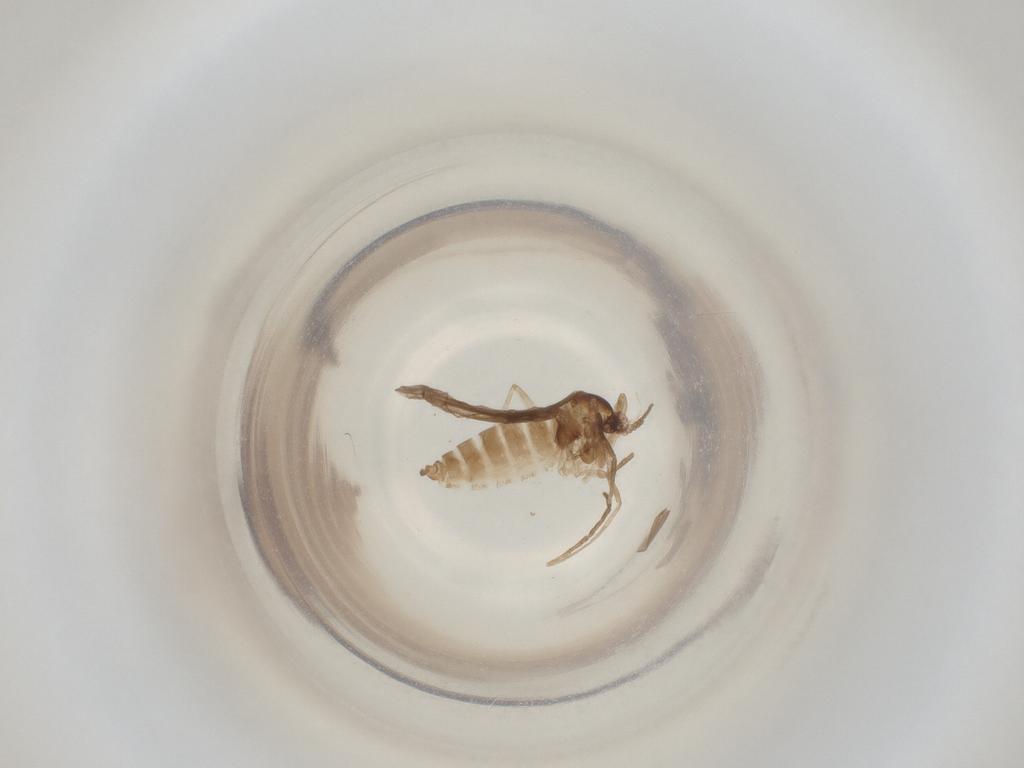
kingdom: Animalia
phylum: Arthropoda
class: Insecta
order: Diptera
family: Cecidomyiidae
